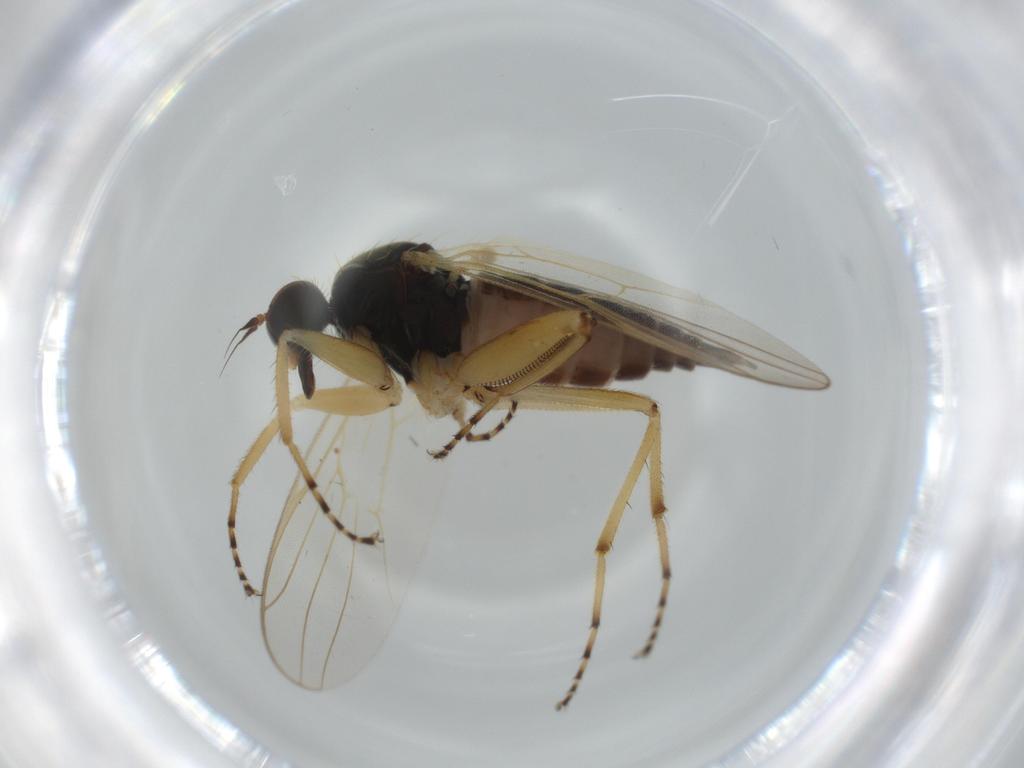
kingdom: Animalia
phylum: Arthropoda
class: Insecta
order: Diptera
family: Hybotidae
